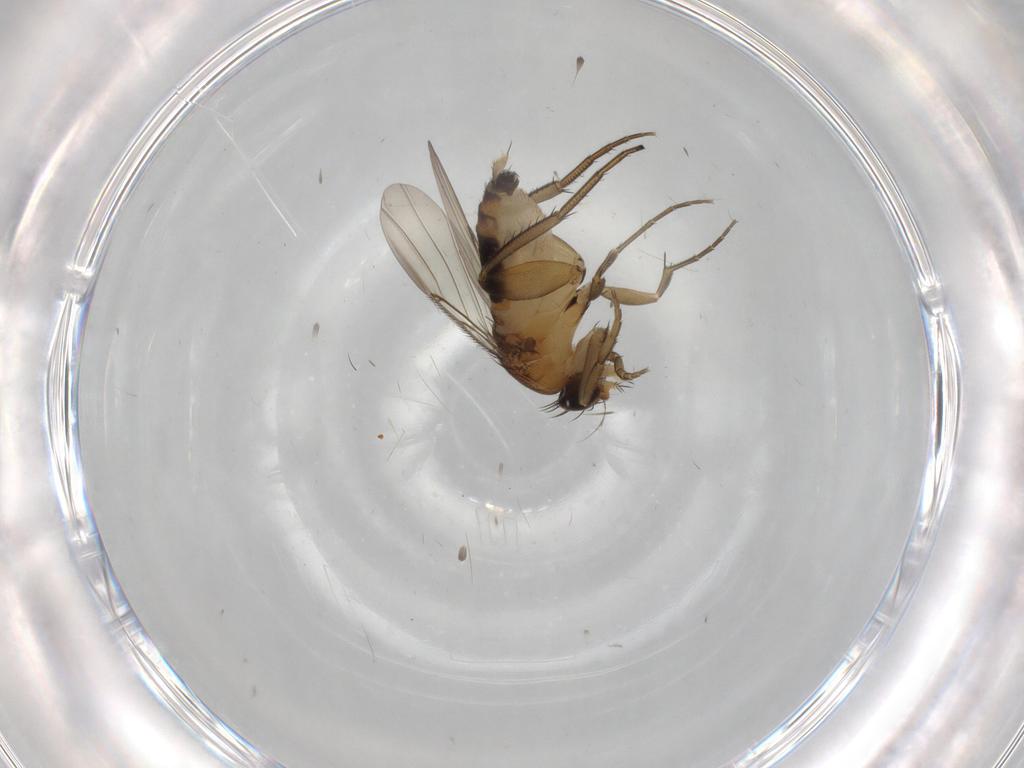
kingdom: Animalia
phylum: Arthropoda
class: Insecta
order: Diptera
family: Phoridae
